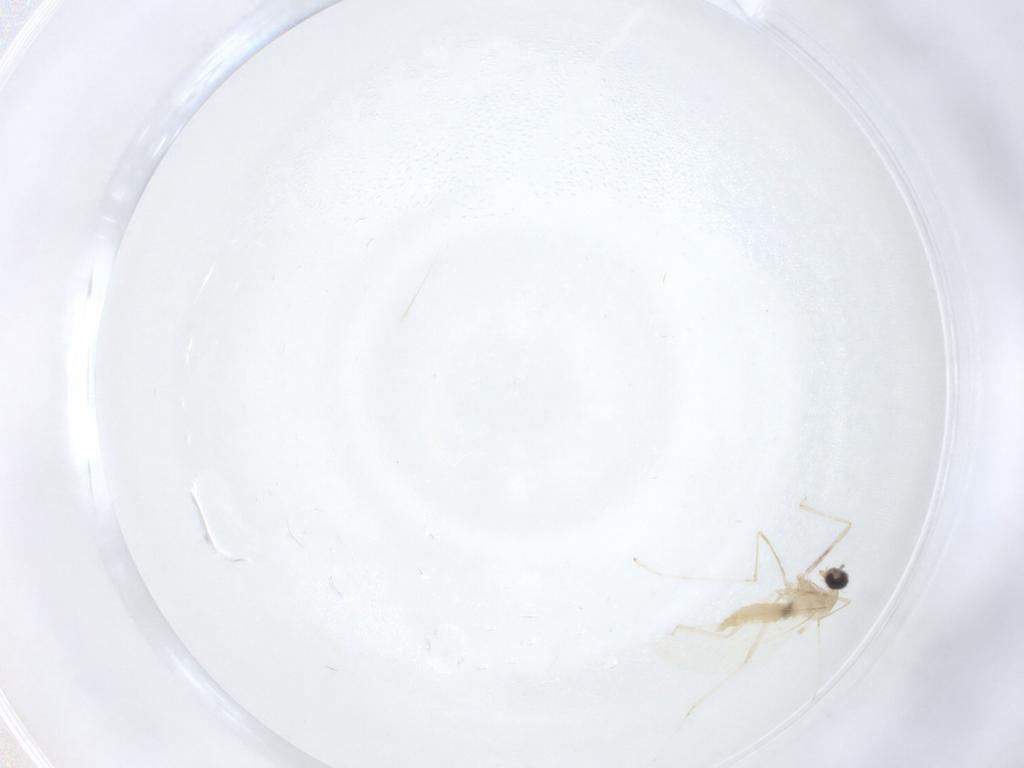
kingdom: Animalia
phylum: Arthropoda
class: Insecta
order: Diptera
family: Cecidomyiidae
